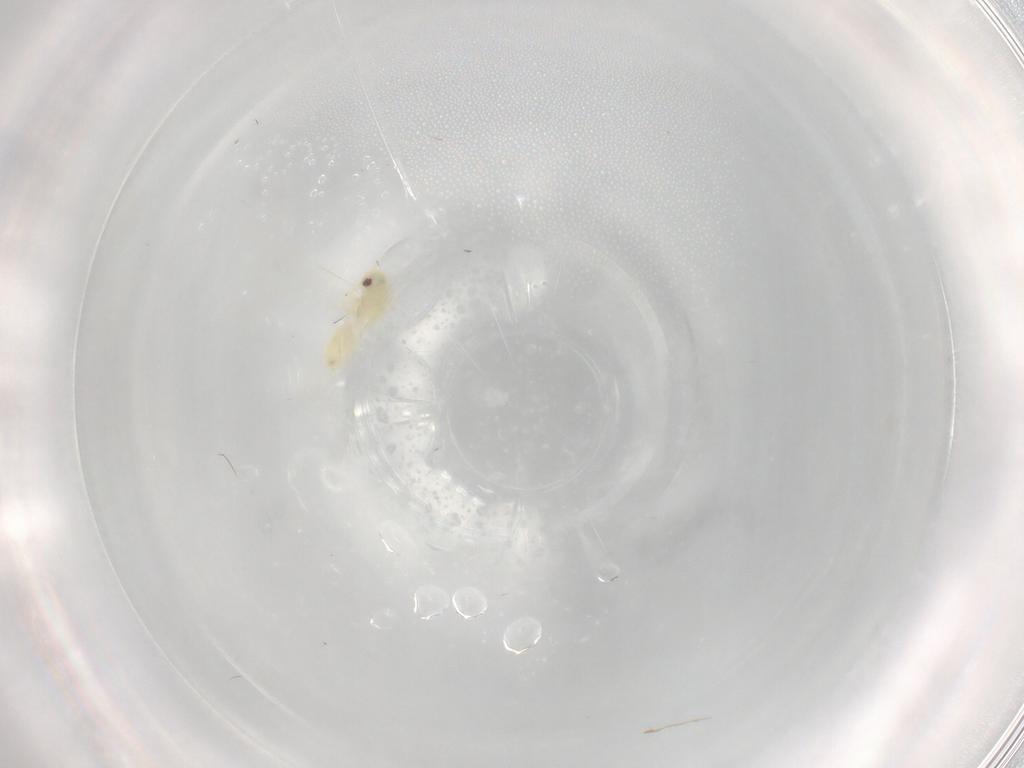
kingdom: Animalia
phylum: Arthropoda
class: Insecta
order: Hemiptera
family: Aleyrodidae
